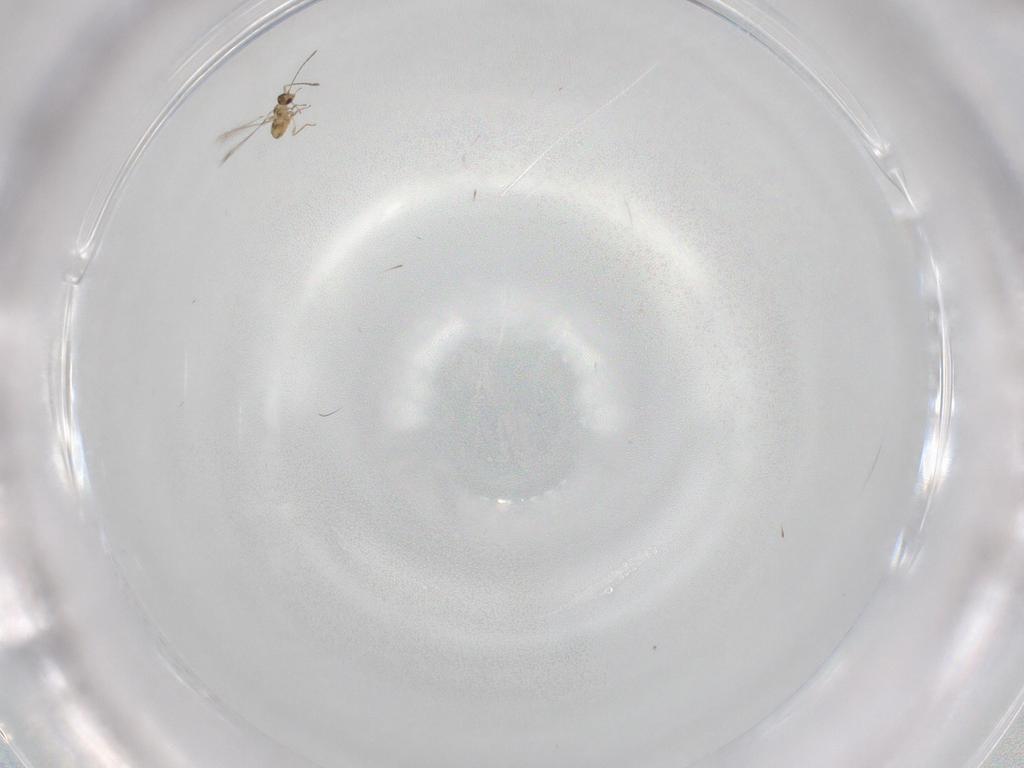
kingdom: Animalia
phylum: Arthropoda
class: Insecta
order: Hymenoptera
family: Mymaridae
